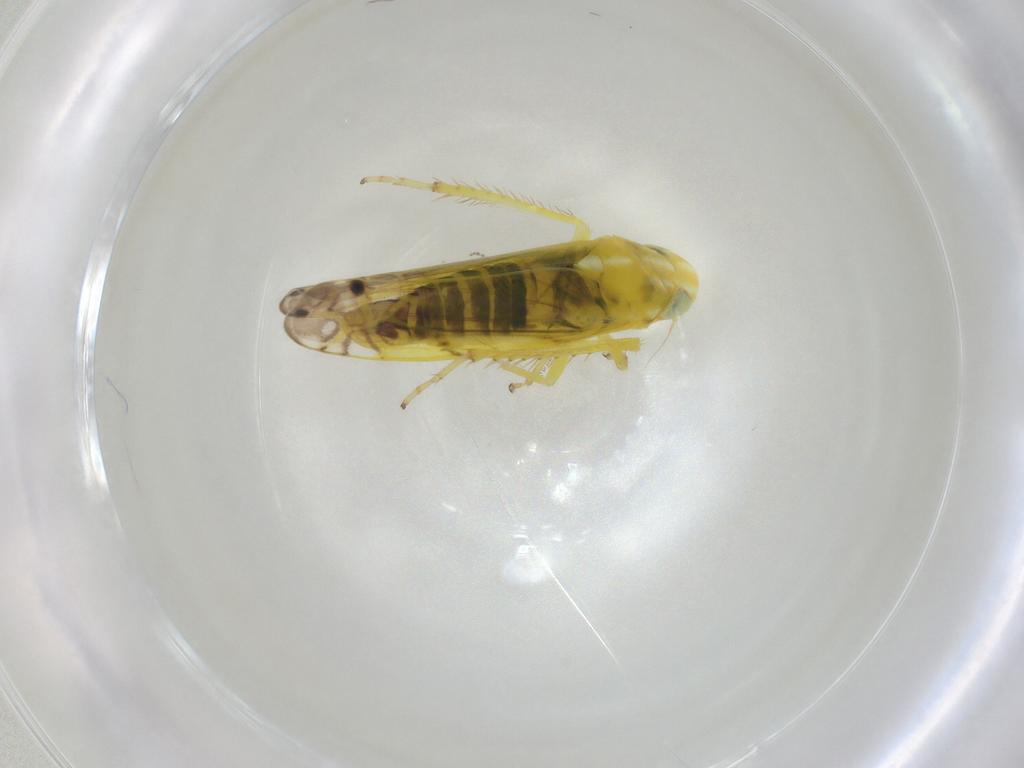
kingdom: Animalia
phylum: Arthropoda
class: Insecta
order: Hemiptera
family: Cicadellidae
